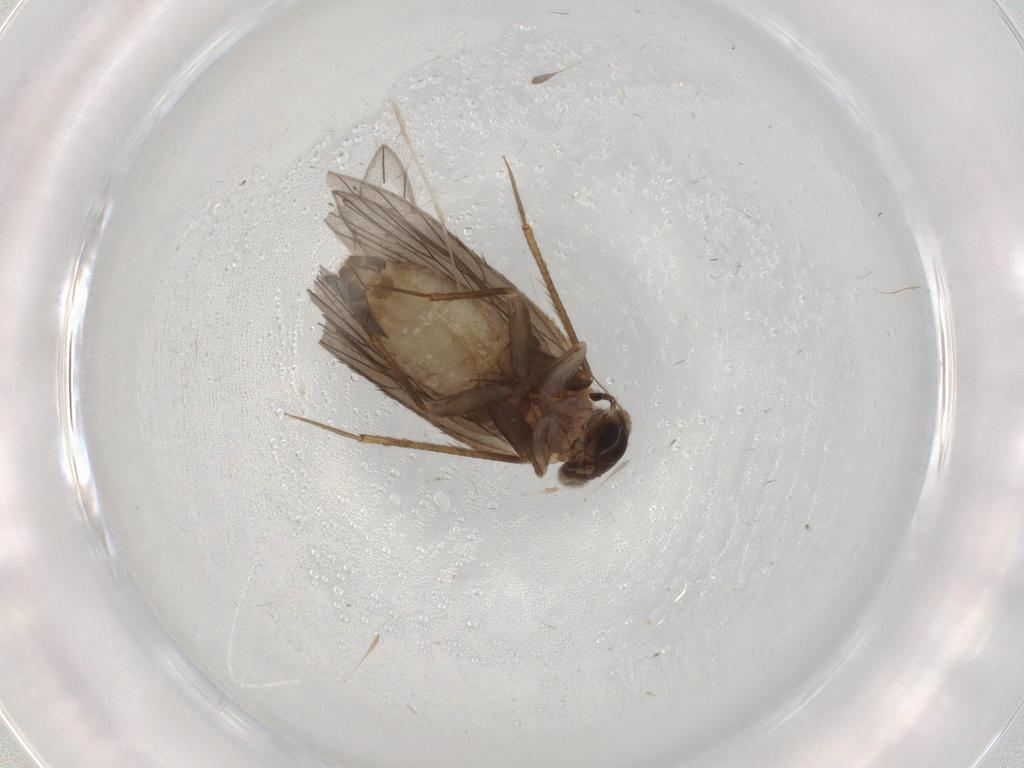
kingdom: Animalia
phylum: Arthropoda
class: Insecta
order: Psocodea
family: Lepidopsocidae
